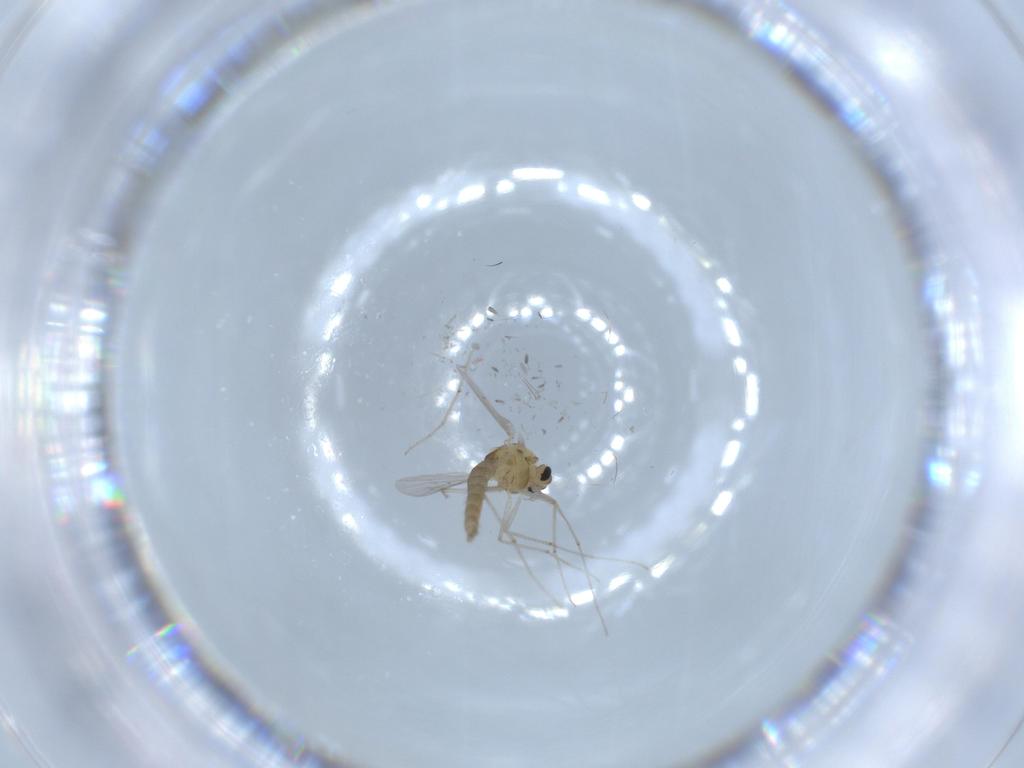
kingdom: Animalia
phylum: Arthropoda
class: Insecta
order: Diptera
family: Chironomidae
